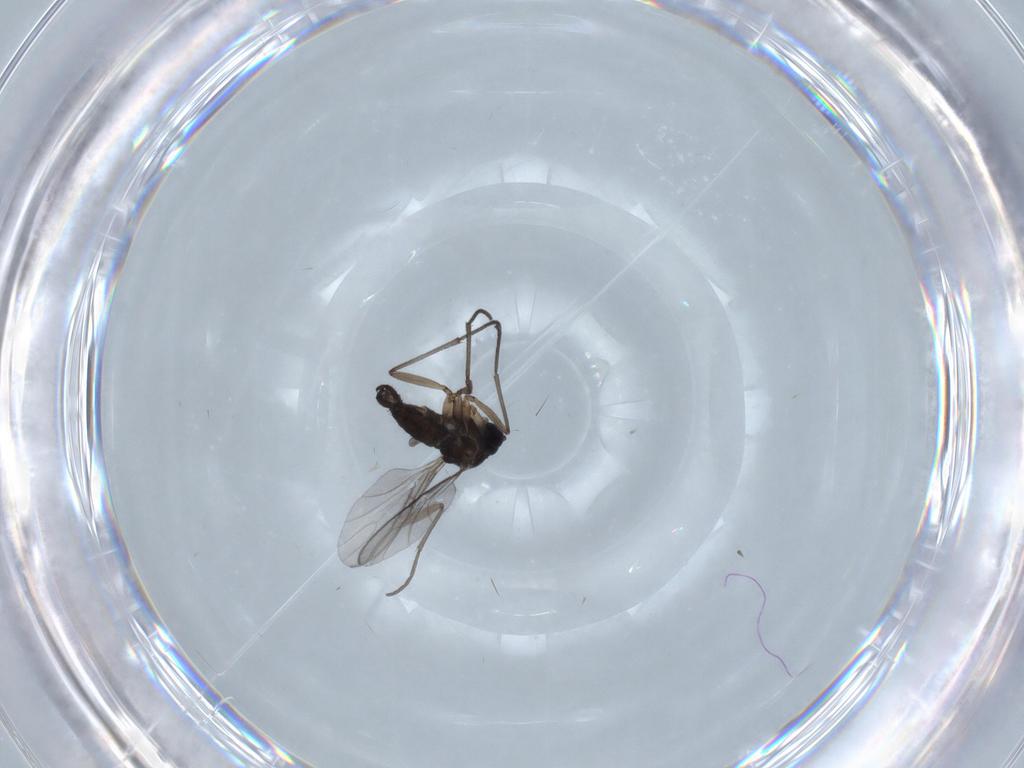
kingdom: Animalia
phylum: Arthropoda
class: Insecta
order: Diptera
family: Sciaridae
